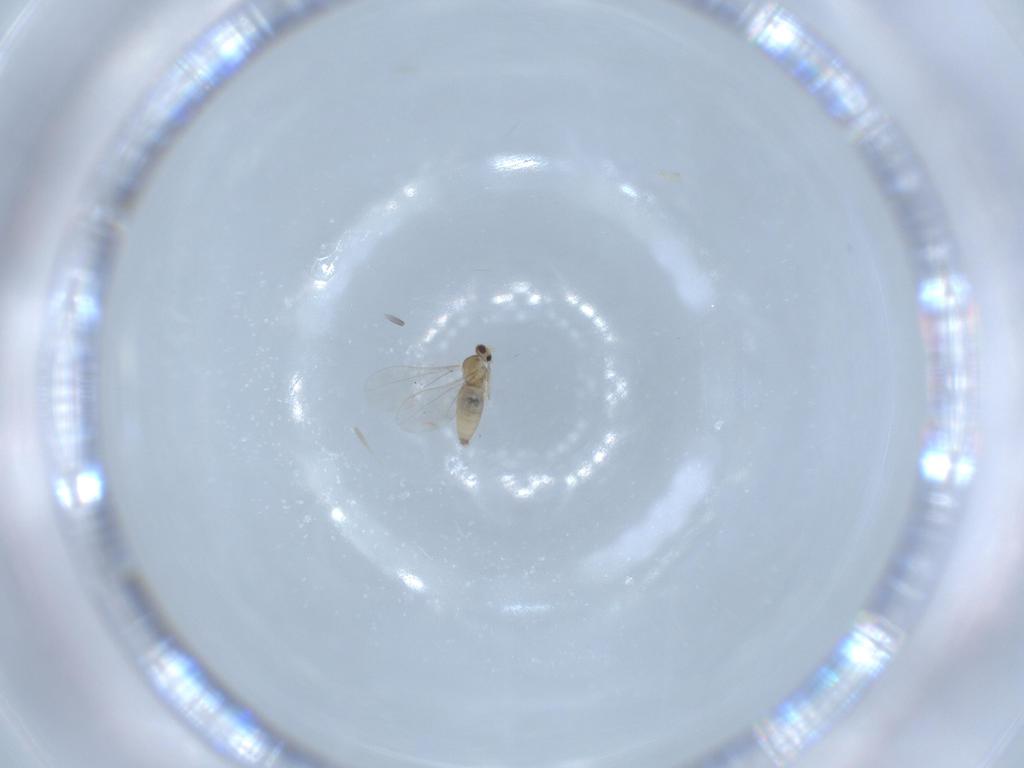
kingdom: Animalia
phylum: Arthropoda
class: Insecta
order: Diptera
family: Cecidomyiidae
